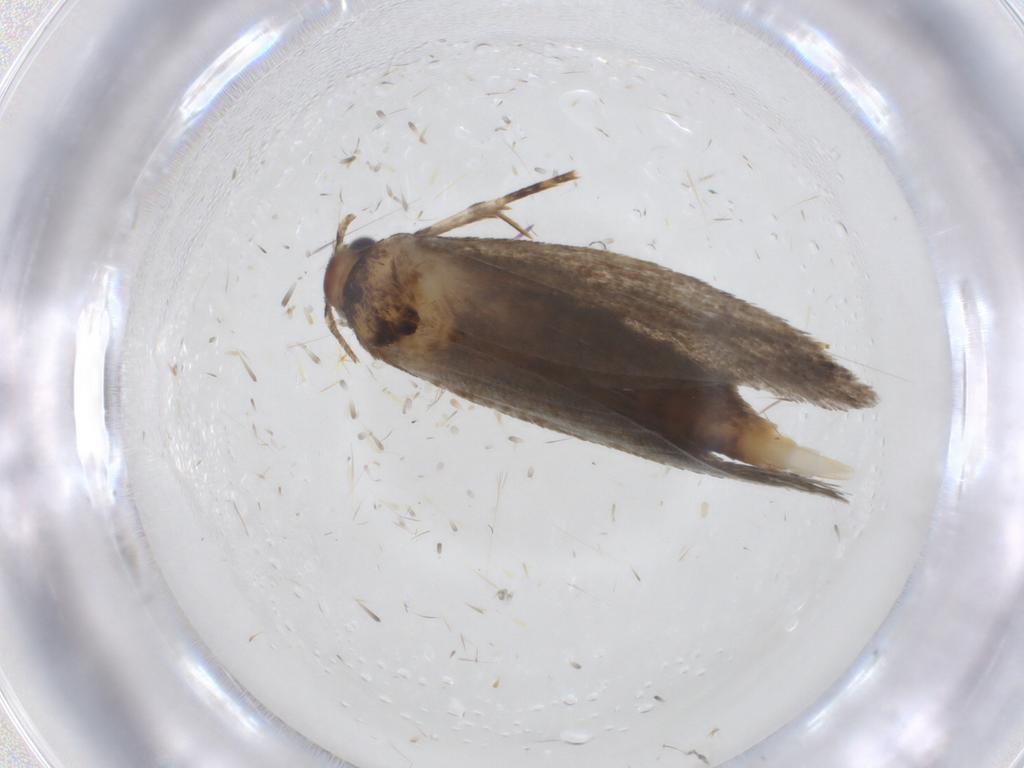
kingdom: Animalia
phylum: Arthropoda
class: Insecta
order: Lepidoptera
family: Oecophoridae
